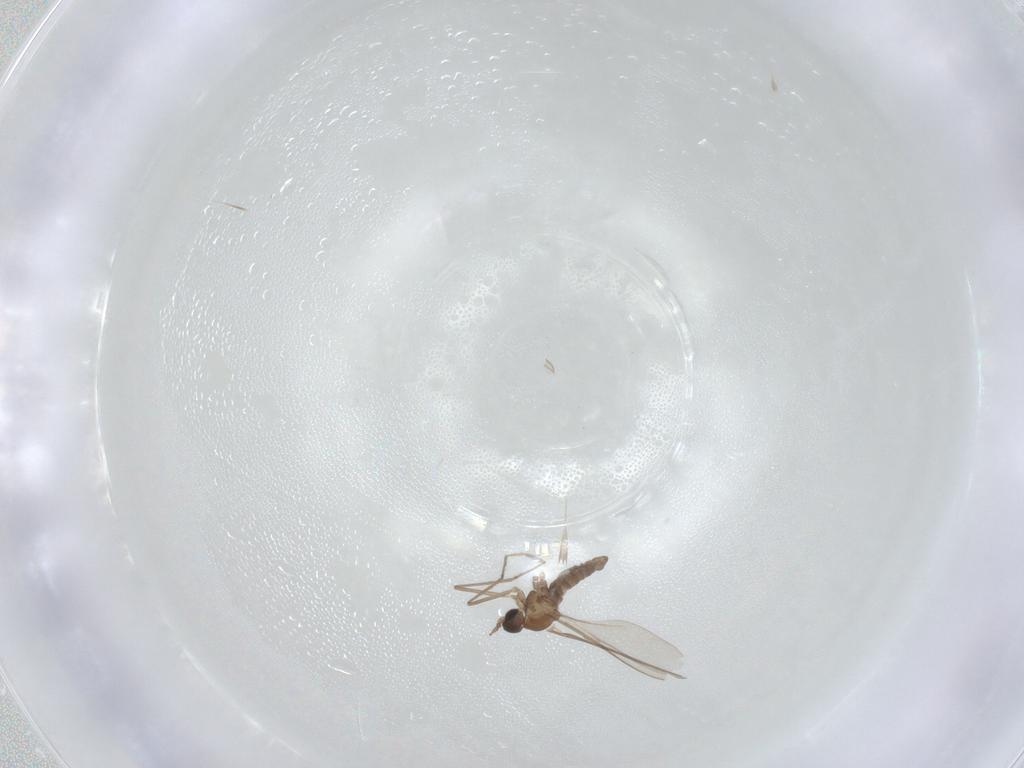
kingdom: Animalia
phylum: Arthropoda
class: Insecta
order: Diptera
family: Cecidomyiidae
